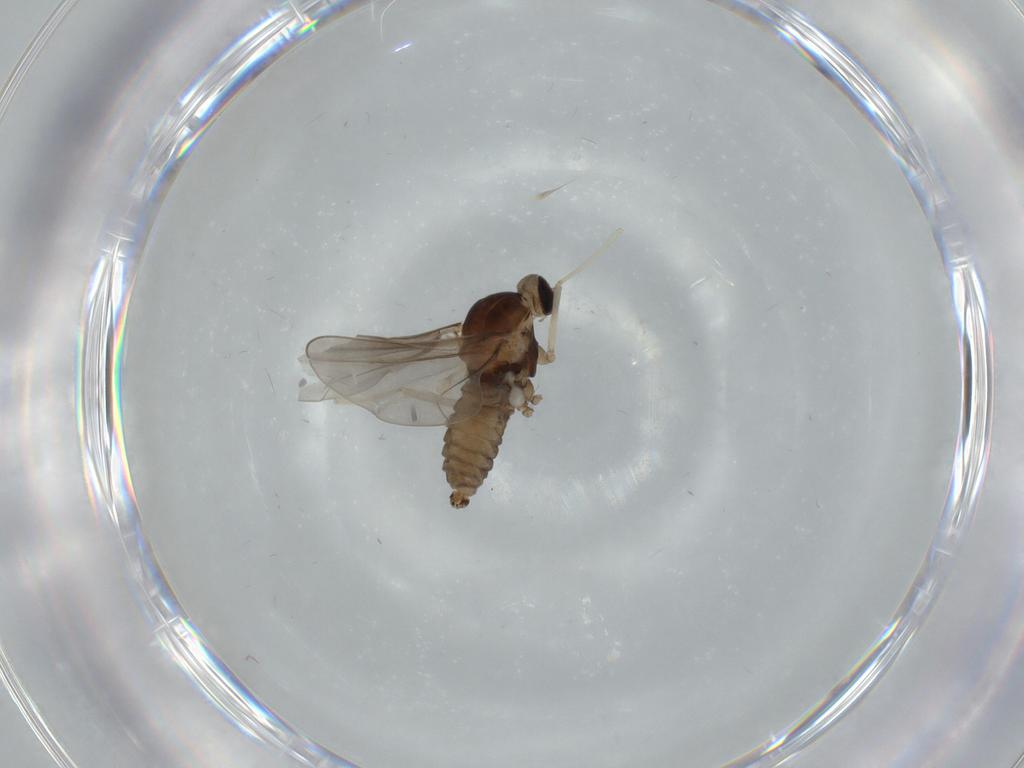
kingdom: Animalia
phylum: Arthropoda
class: Insecta
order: Diptera
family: Cecidomyiidae
